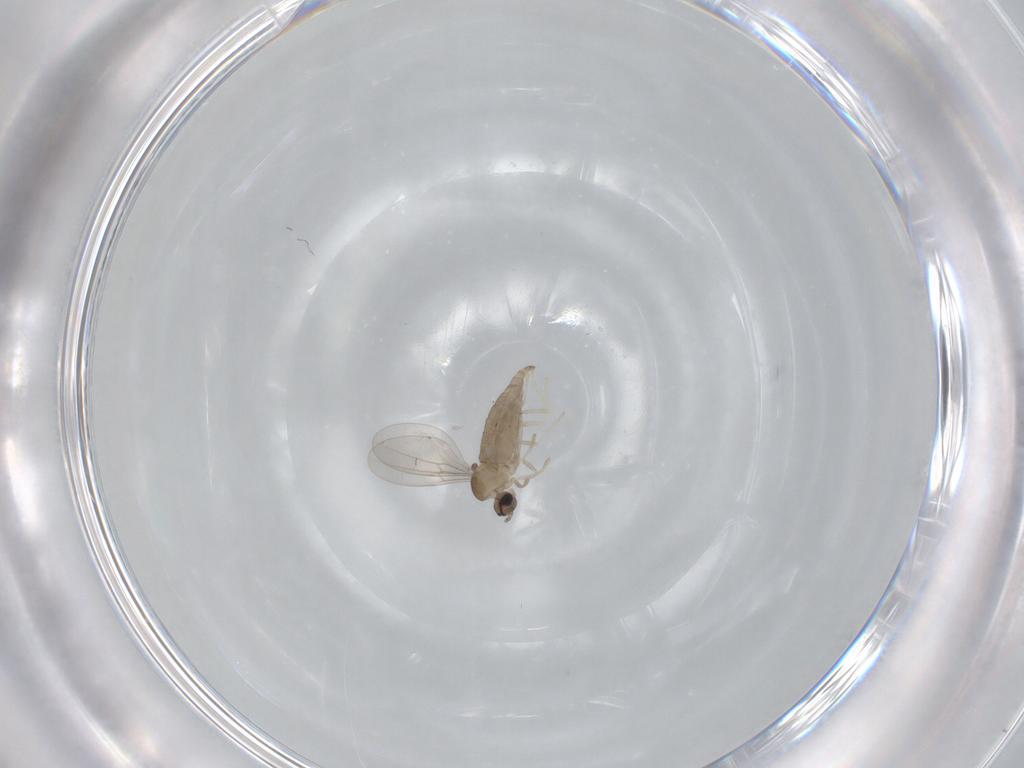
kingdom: Animalia
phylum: Arthropoda
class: Insecta
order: Diptera
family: Cecidomyiidae
